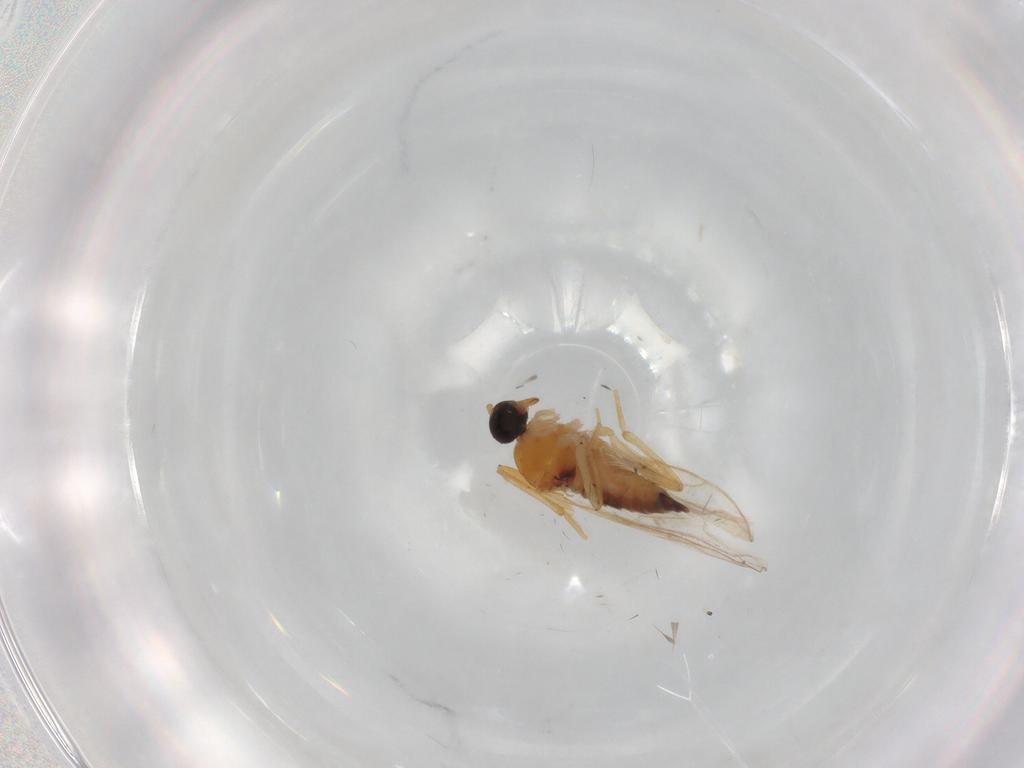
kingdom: Animalia
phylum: Arthropoda
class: Insecta
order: Diptera
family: Hybotidae
